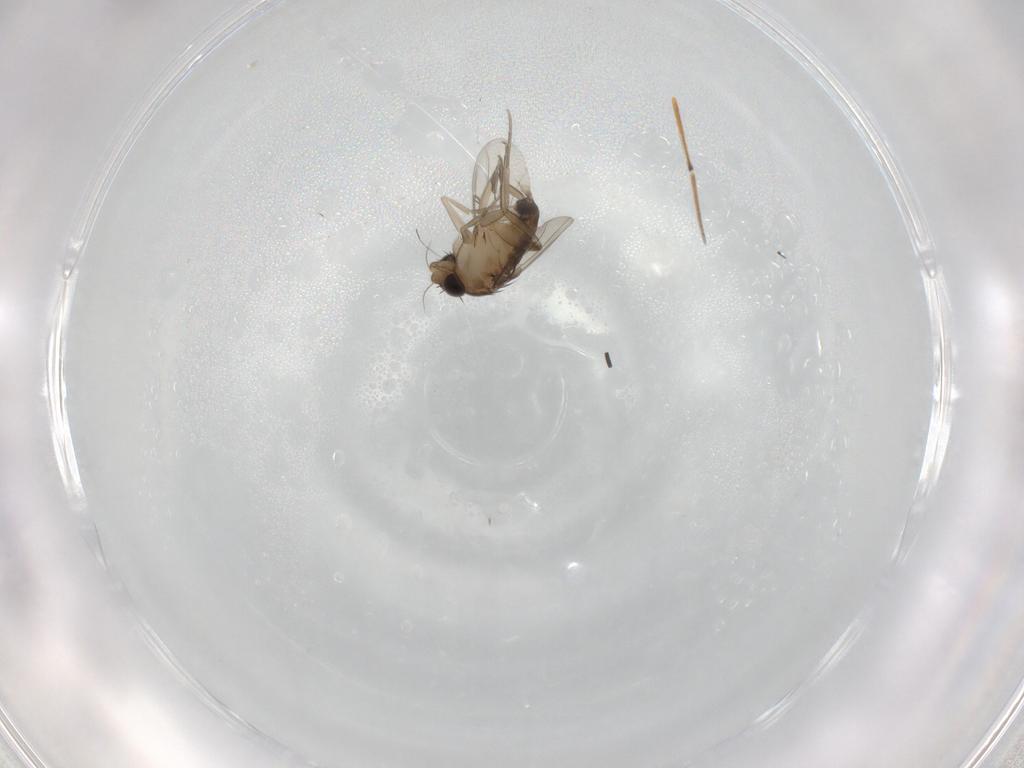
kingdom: Animalia
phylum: Arthropoda
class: Insecta
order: Diptera
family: Phoridae
